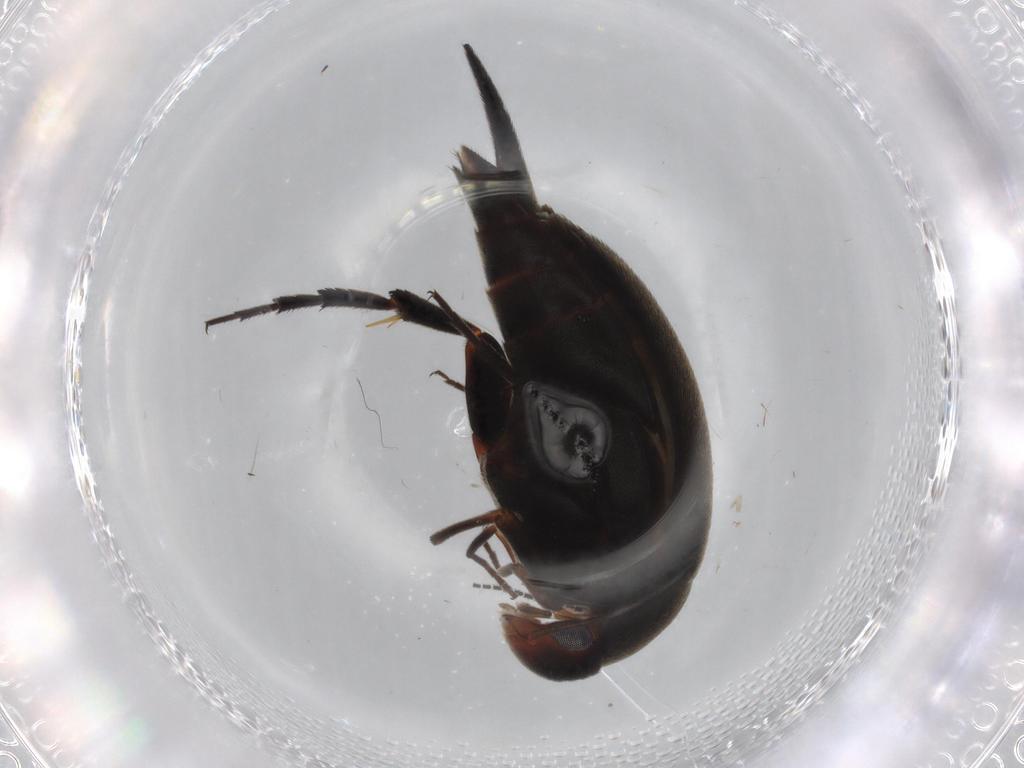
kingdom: Animalia
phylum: Arthropoda
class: Insecta
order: Coleoptera
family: Mordellidae
